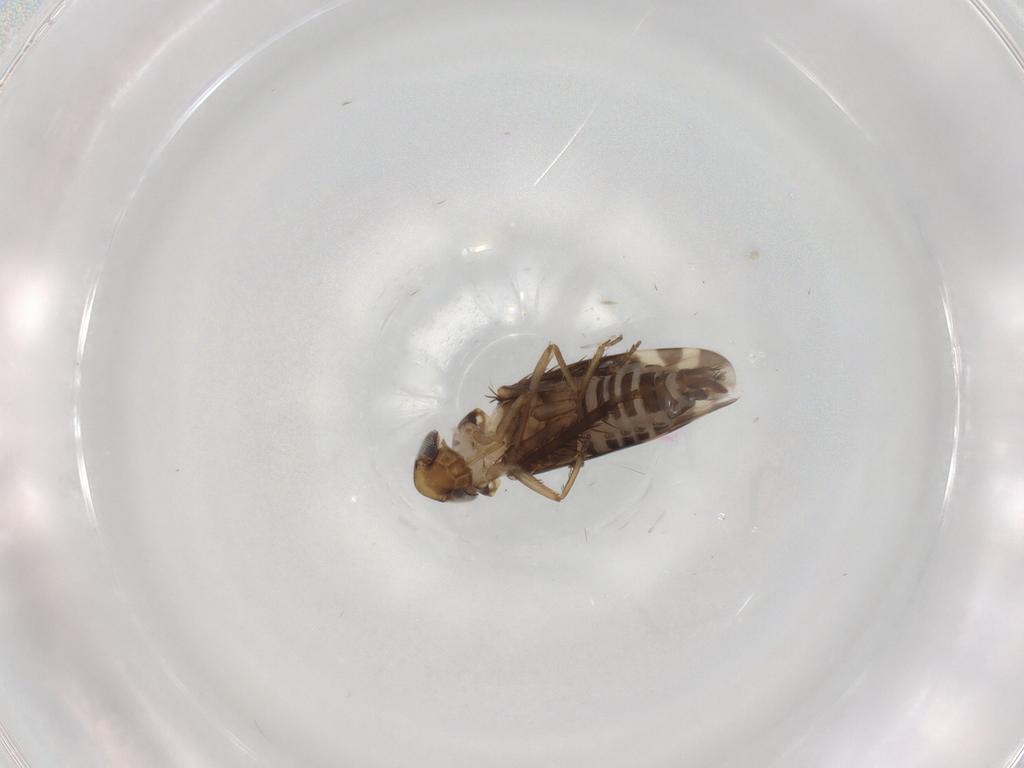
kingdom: Animalia
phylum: Arthropoda
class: Insecta
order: Hemiptera
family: Cicadellidae
